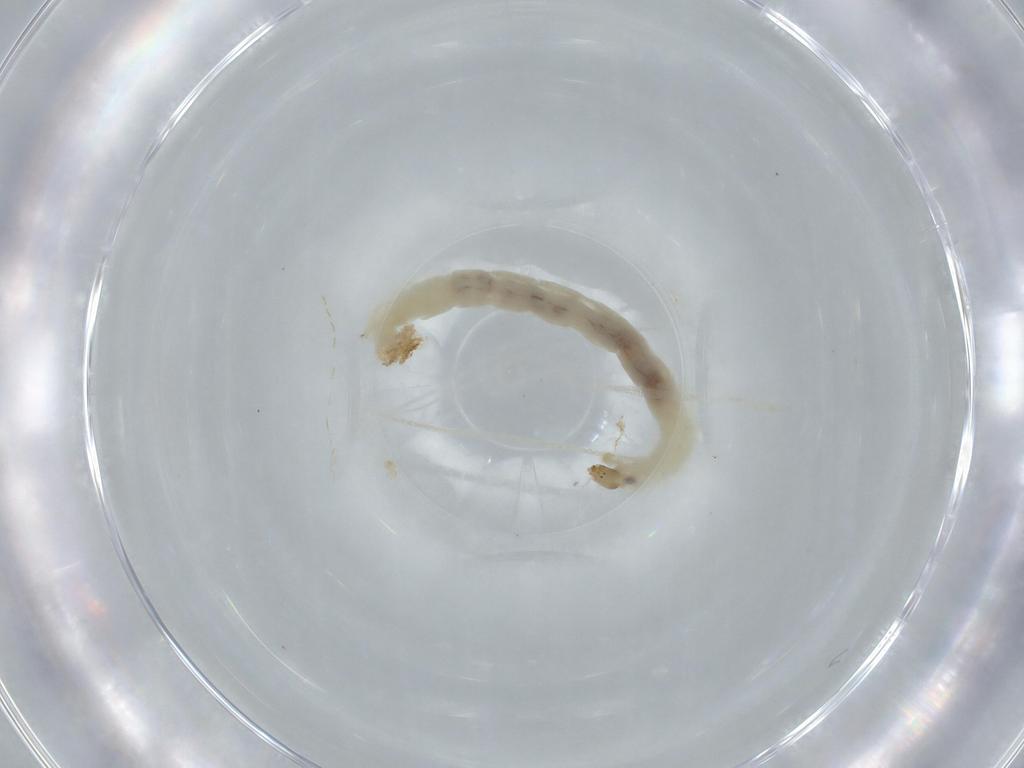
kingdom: Animalia
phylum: Arthropoda
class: Insecta
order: Diptera
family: Chironomidae
